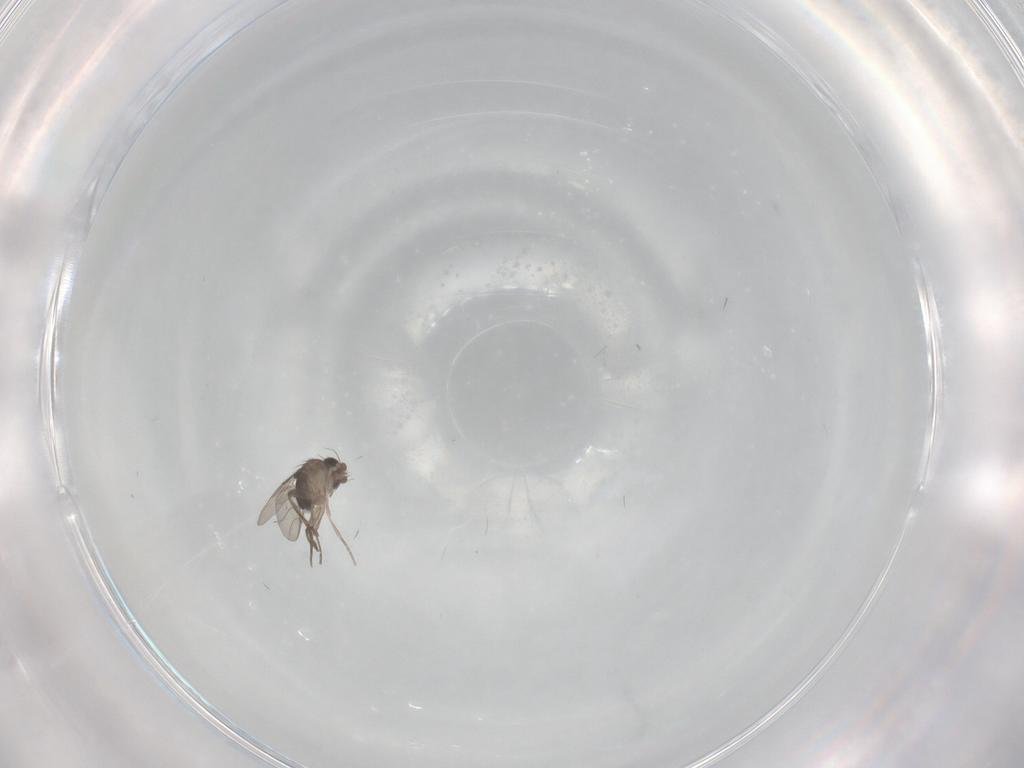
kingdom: Animalia
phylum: Arthropoda
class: Insecta
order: Diptera
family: Phoridae
